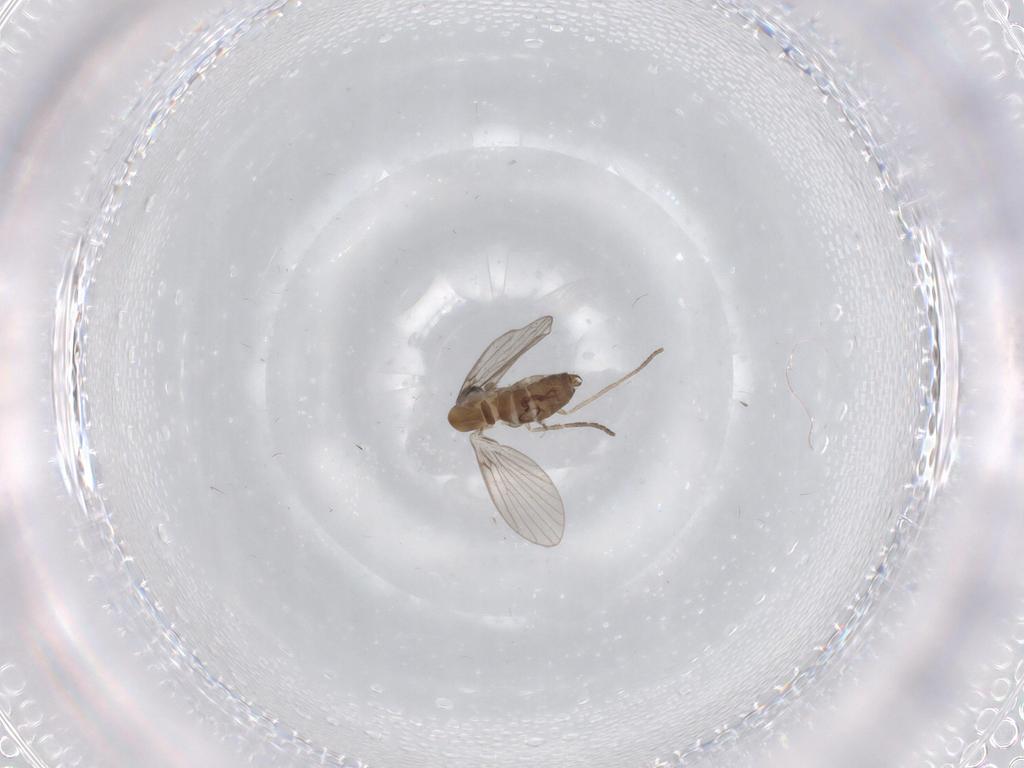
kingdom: Animalia
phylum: Arthropoda
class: Insecta
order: Diptera
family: Psychodidae
